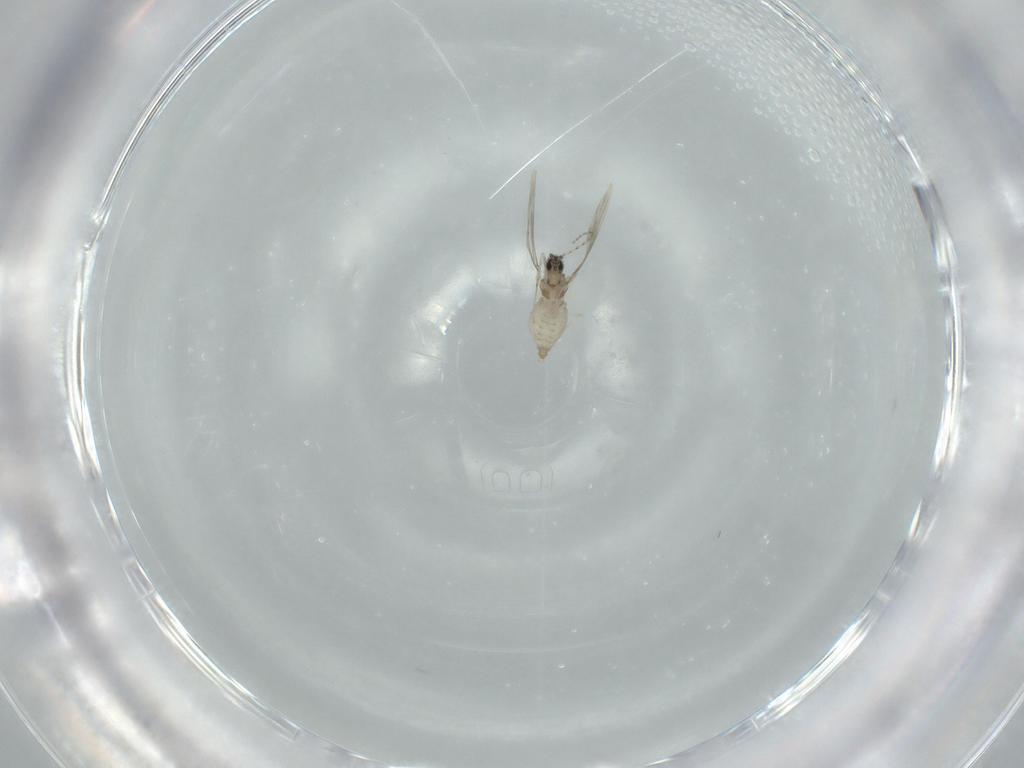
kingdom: Animalia
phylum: Arthropoda
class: Insecta
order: Diptera
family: Cecidomyiidae
